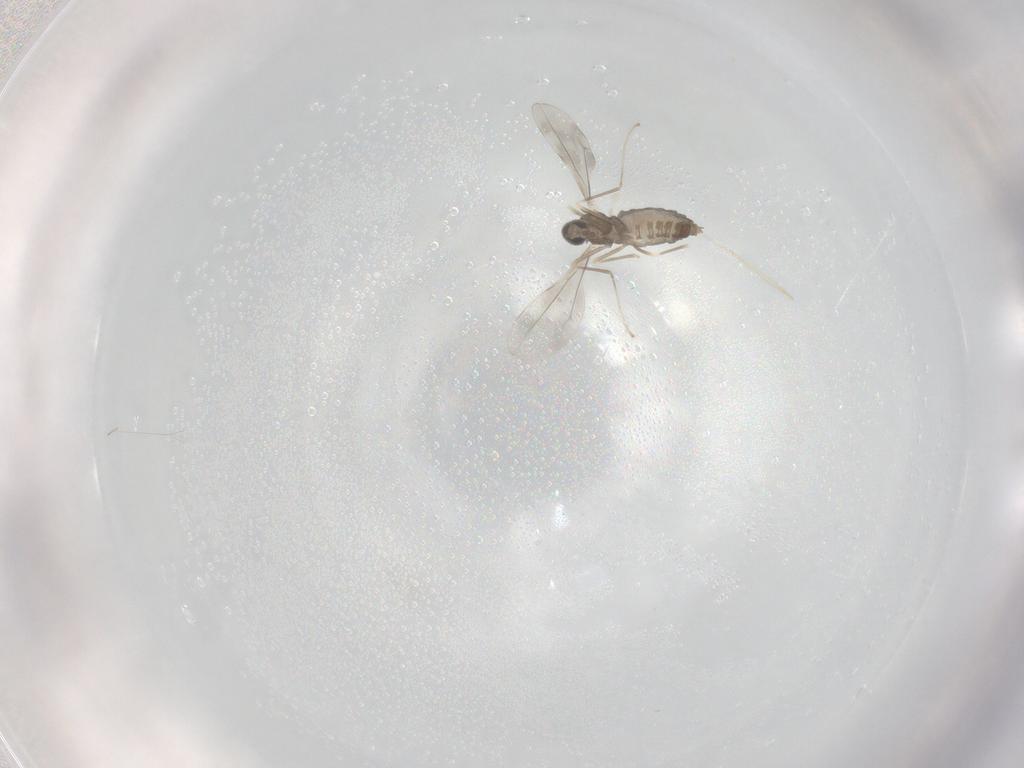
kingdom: Animalia
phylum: Arthropoda
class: Insecta
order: Diptera
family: Cecidomyiidae
